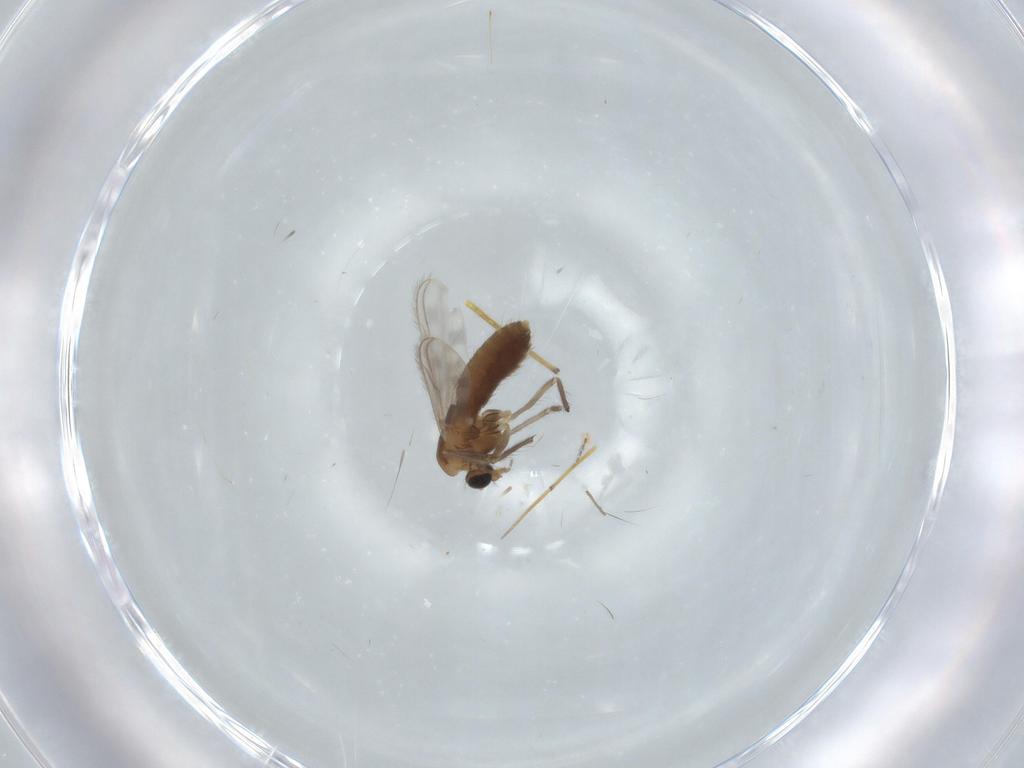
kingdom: Animalia
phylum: Arthropoda
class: Insecta
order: Diptera
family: Chironomidae
